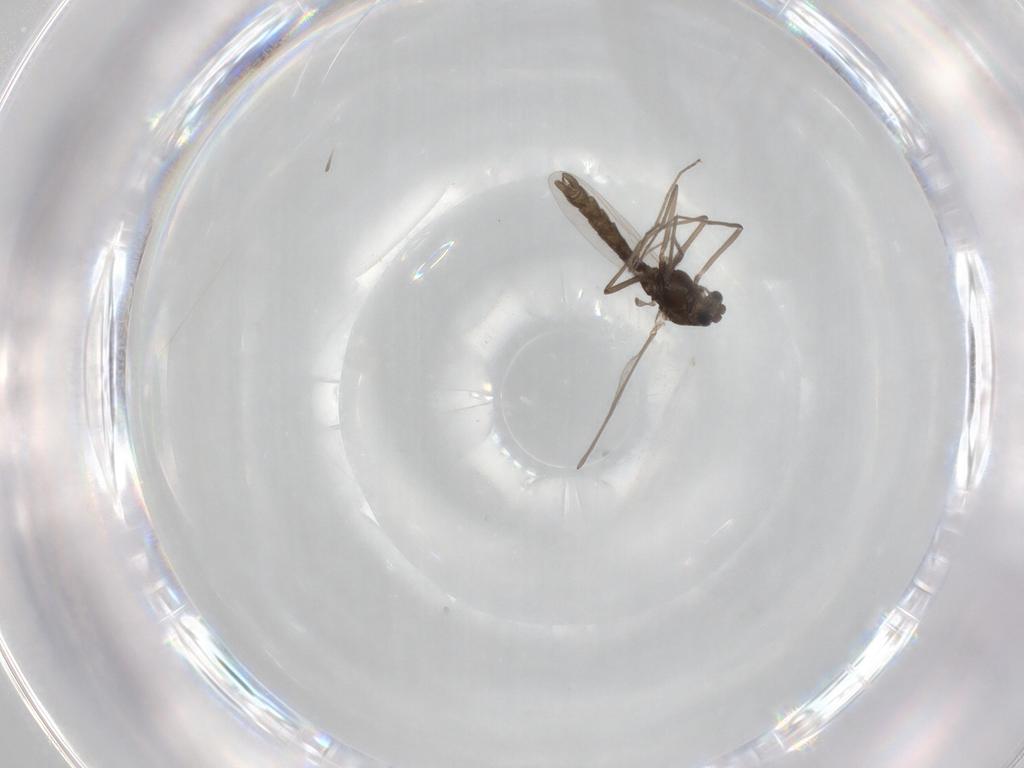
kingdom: Animalia
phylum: Arthropoda
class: Insecta
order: Diptera
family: Chironomidae
